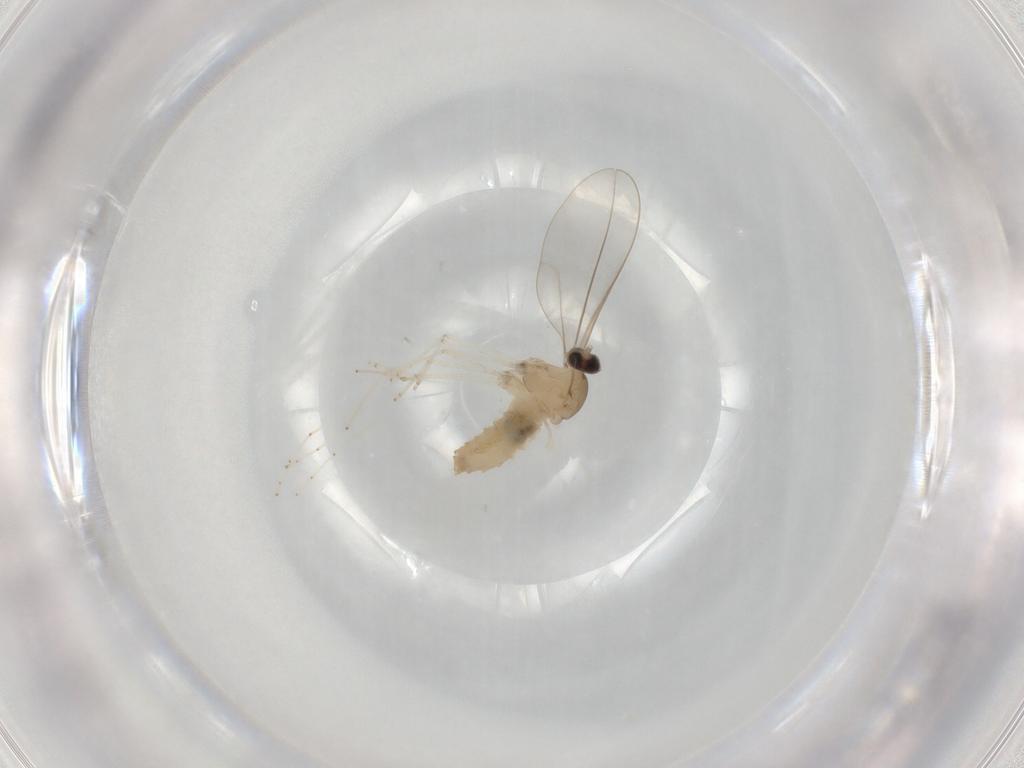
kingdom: Animalia
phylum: Arthropoda
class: Insecta
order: Diptera
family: Cecidomyiidae
